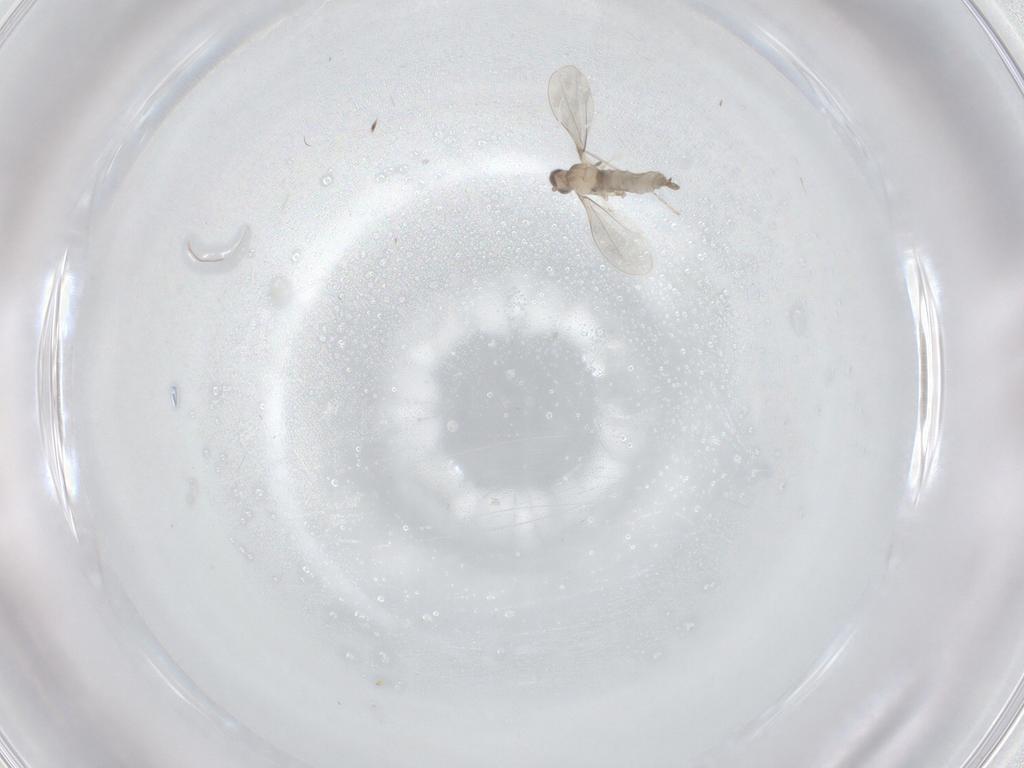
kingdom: Animalia
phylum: Arthropoda
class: Insecta
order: Diptera
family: Cecidomyiidae
